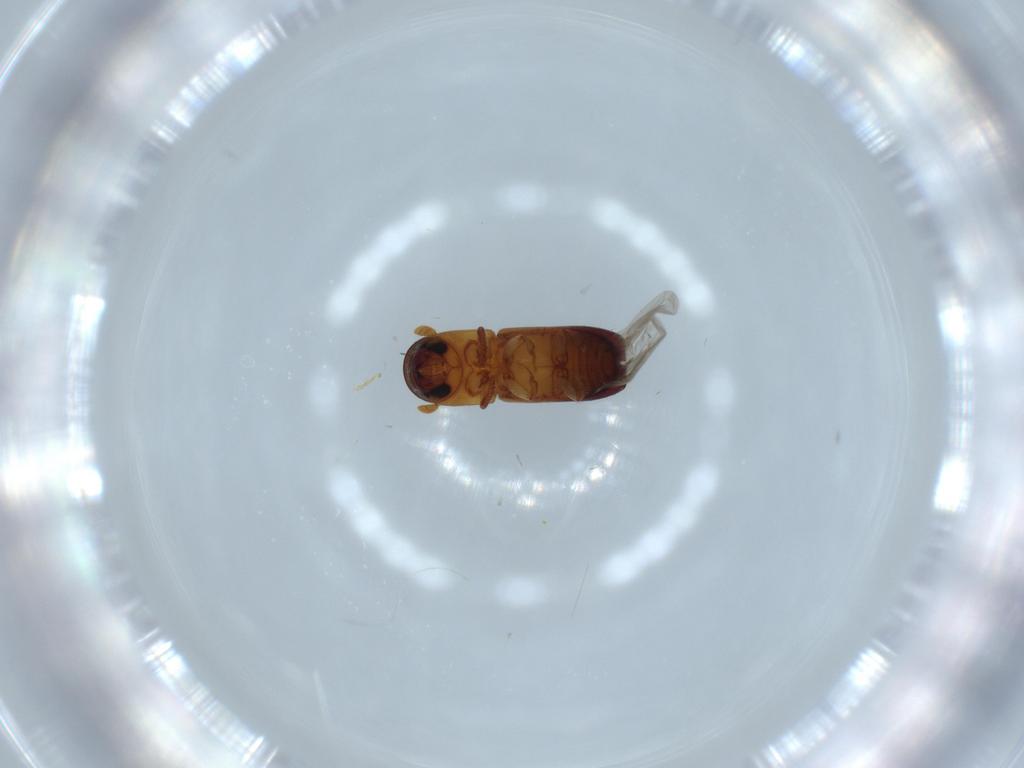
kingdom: Animalia
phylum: Arthropoda
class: Insecta
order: Coleoptera
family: Curculionidae
